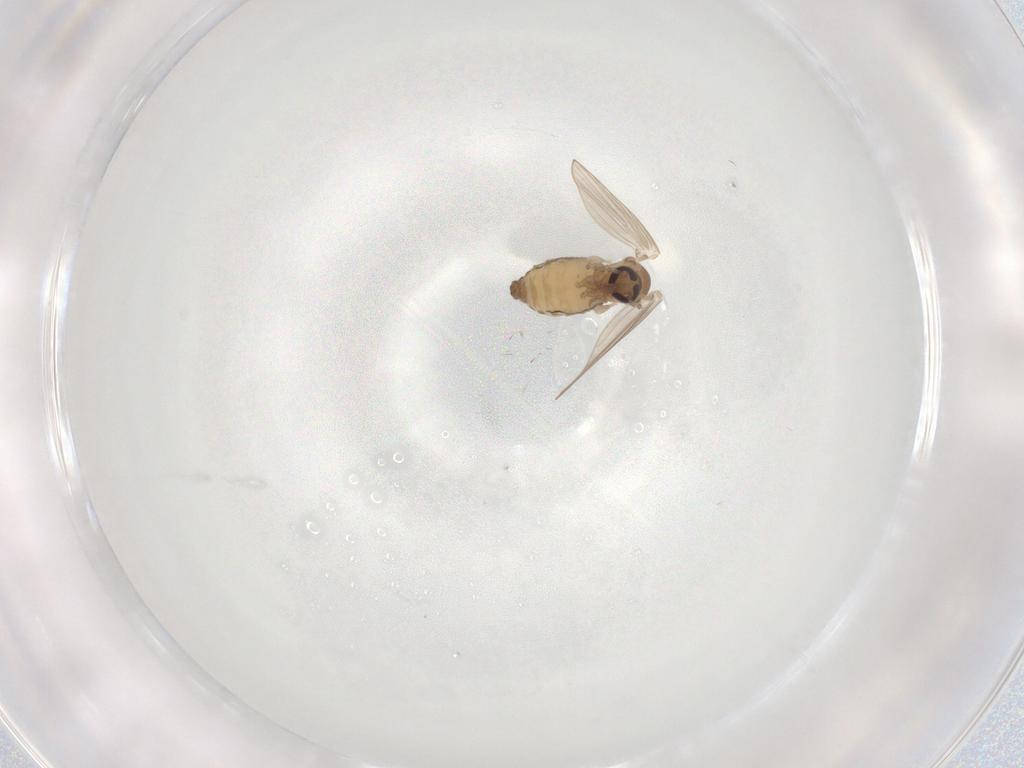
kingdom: Animalia
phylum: Arthropoda
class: Insecta
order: Diptera
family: Psychodidae
